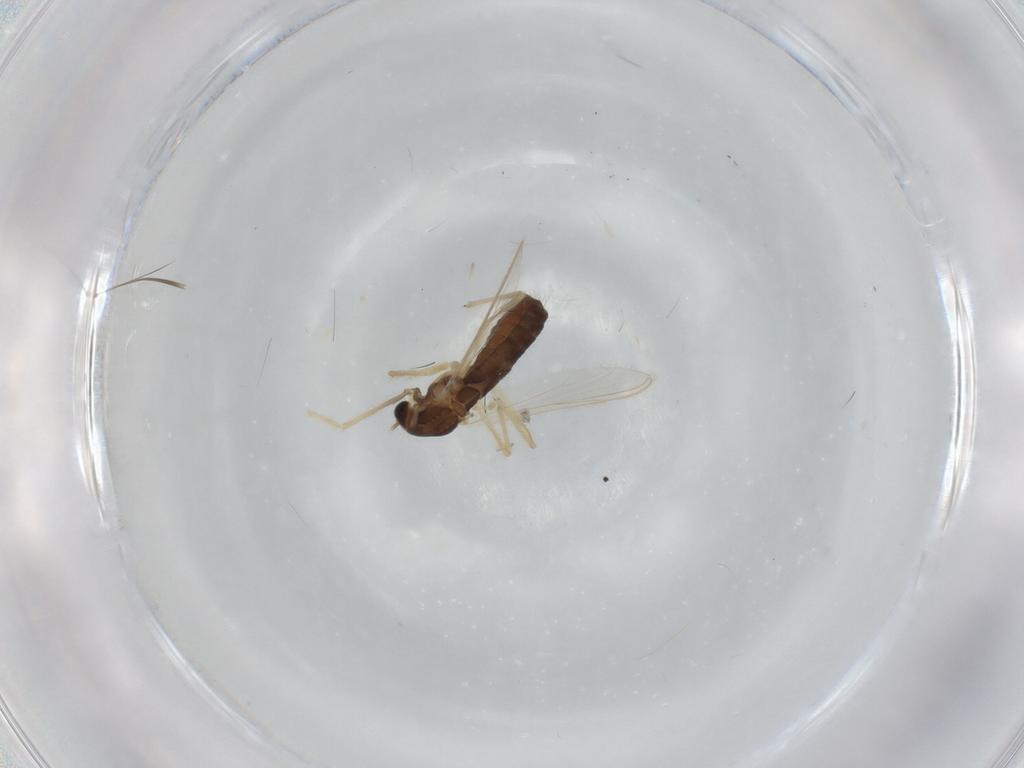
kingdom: Animalia
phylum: Arthropoda
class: Insecta
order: Diptera
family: Chironomidae
